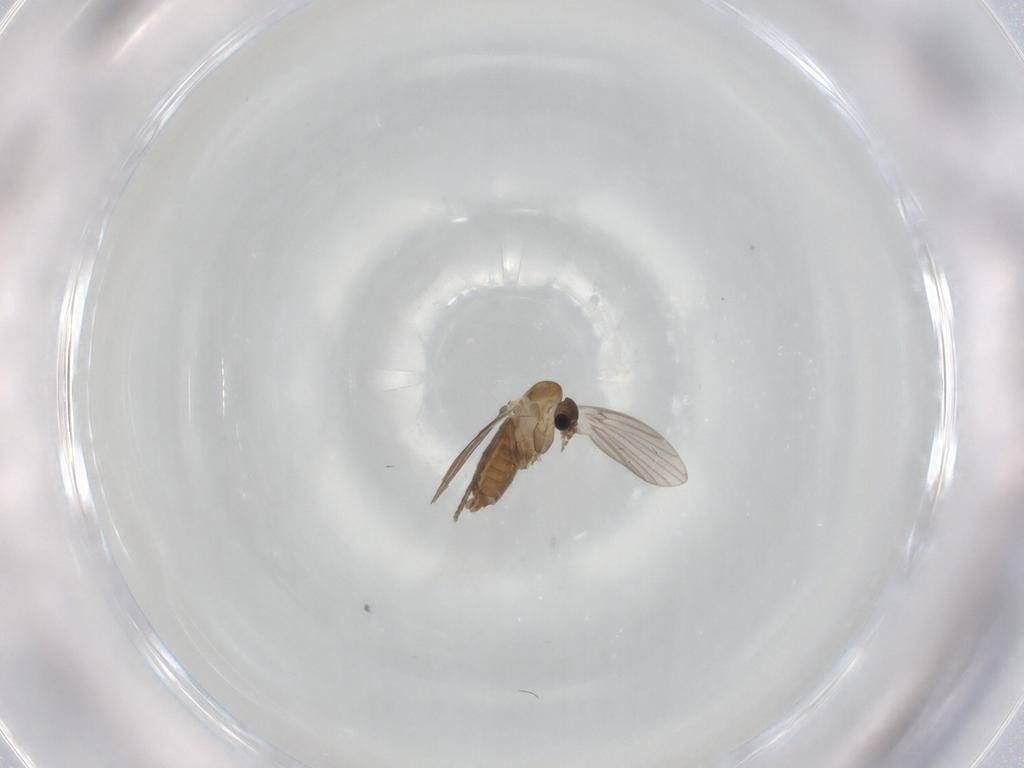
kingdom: Animalia
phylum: Arthropoda
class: Insecta
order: Diptera
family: Psychodidae
